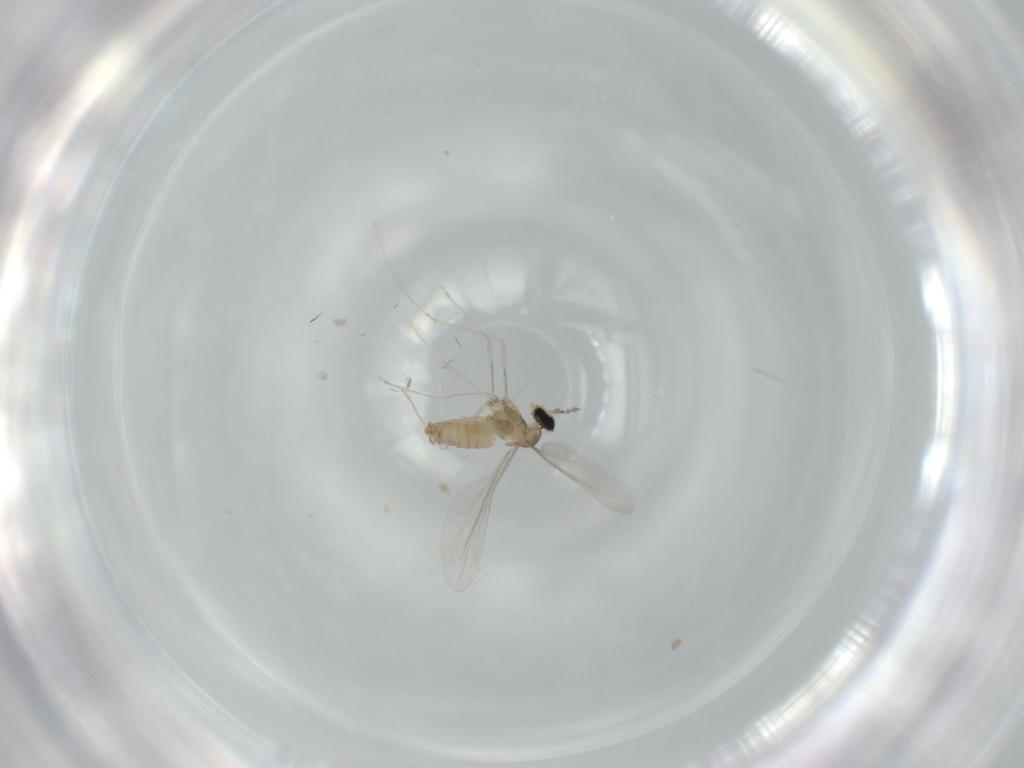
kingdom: Animalia
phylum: Arthropoda
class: Insecta
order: Diptera
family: Cecidomyiidae
